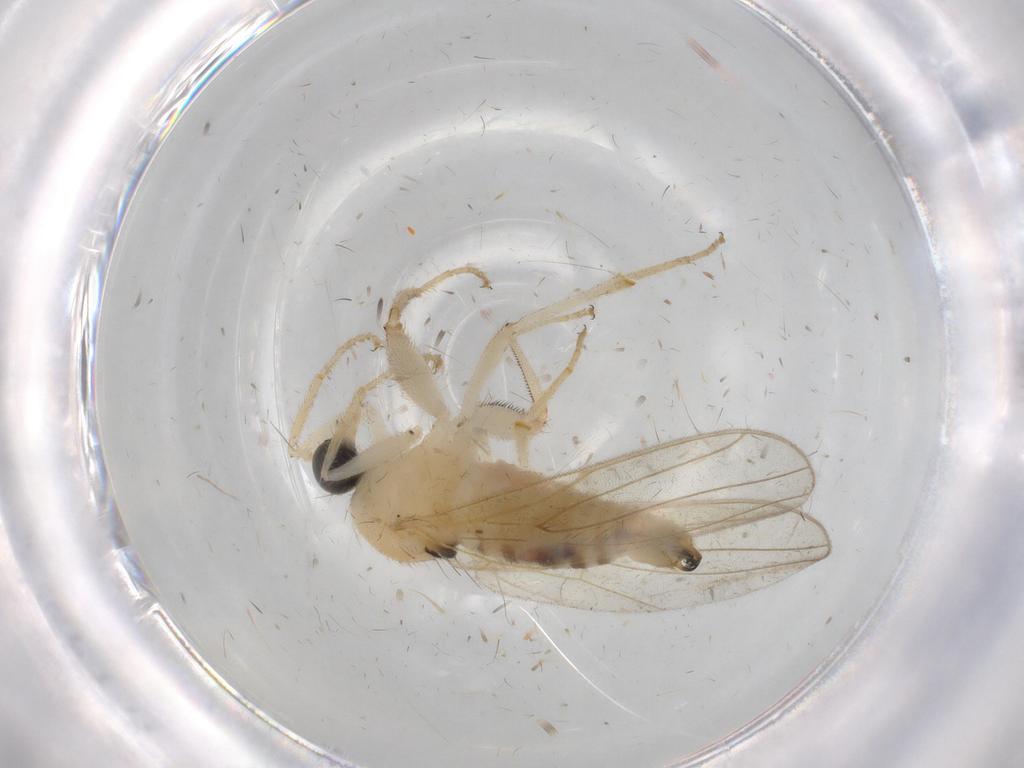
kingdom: Animalia
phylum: Arthropoda
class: Insecta
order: Diptera
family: Hybotidae
